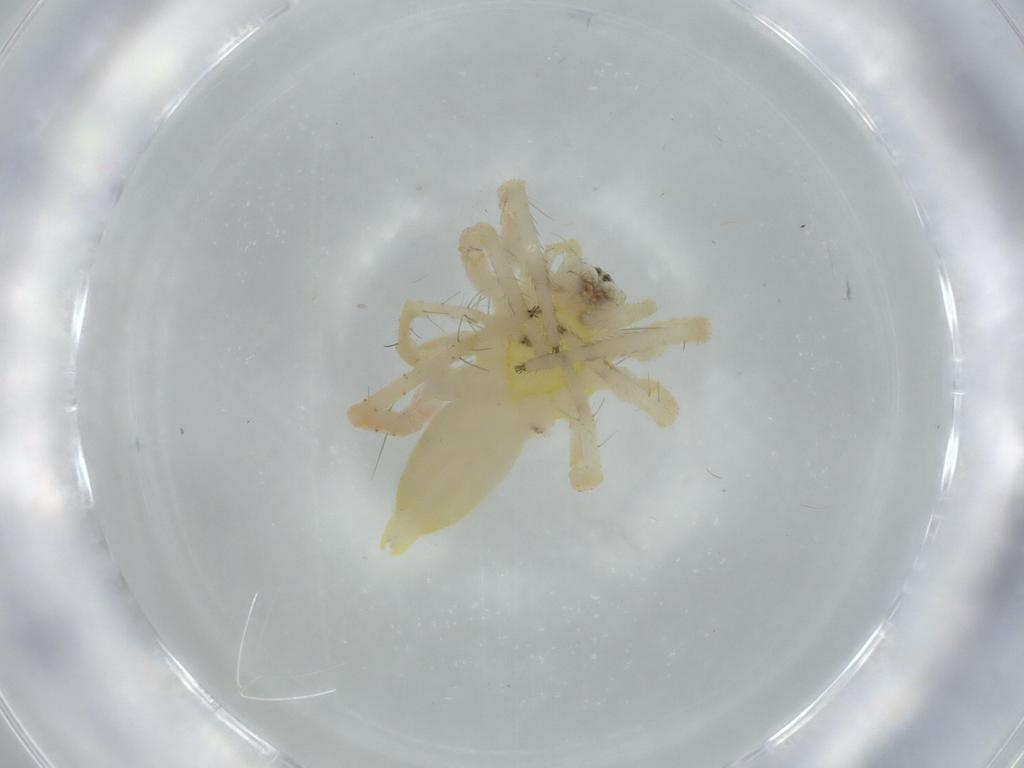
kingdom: Animalia
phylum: Arthropoda
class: Arachnida
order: Araneae
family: Anyphaenidae
